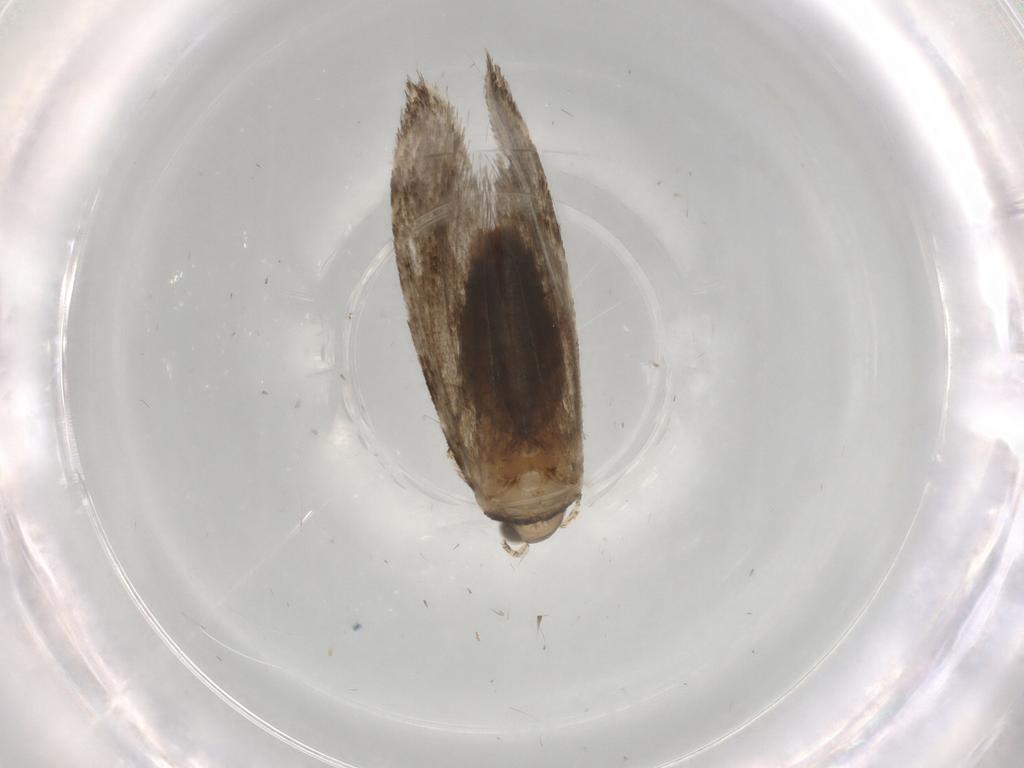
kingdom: Animalia
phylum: Arthropoda
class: Insecta
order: Lepidoptera
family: Tineidae
